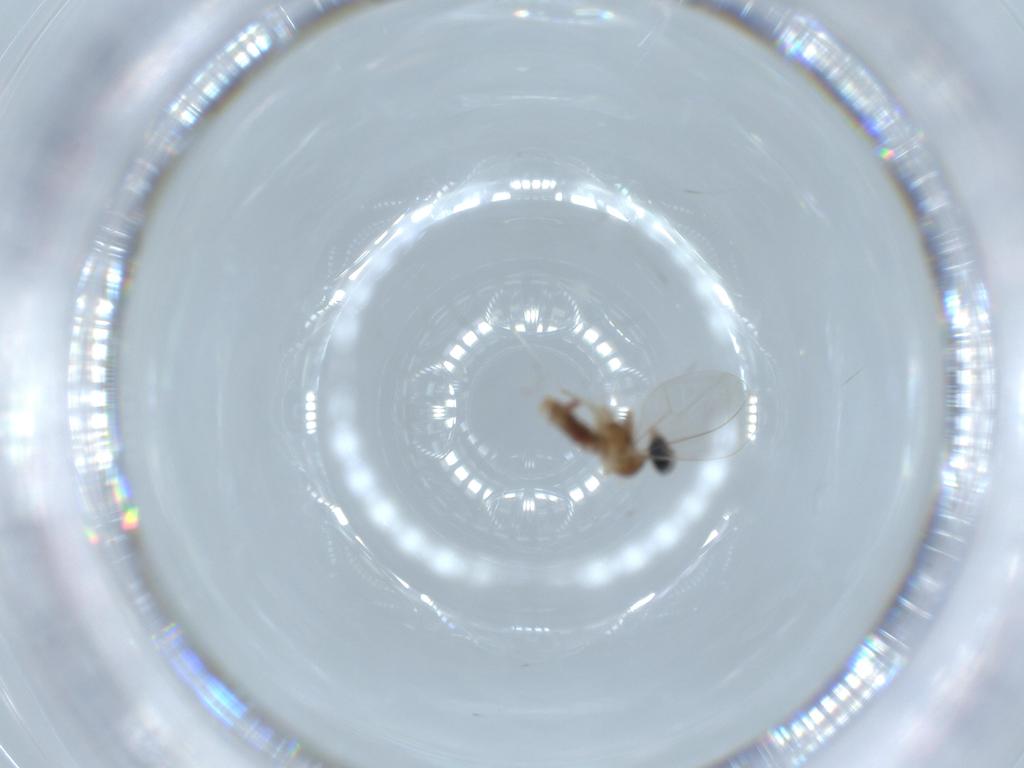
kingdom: Animalia
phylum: Arthropoda
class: Insecta
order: Diptera
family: Cecidomyiidae
